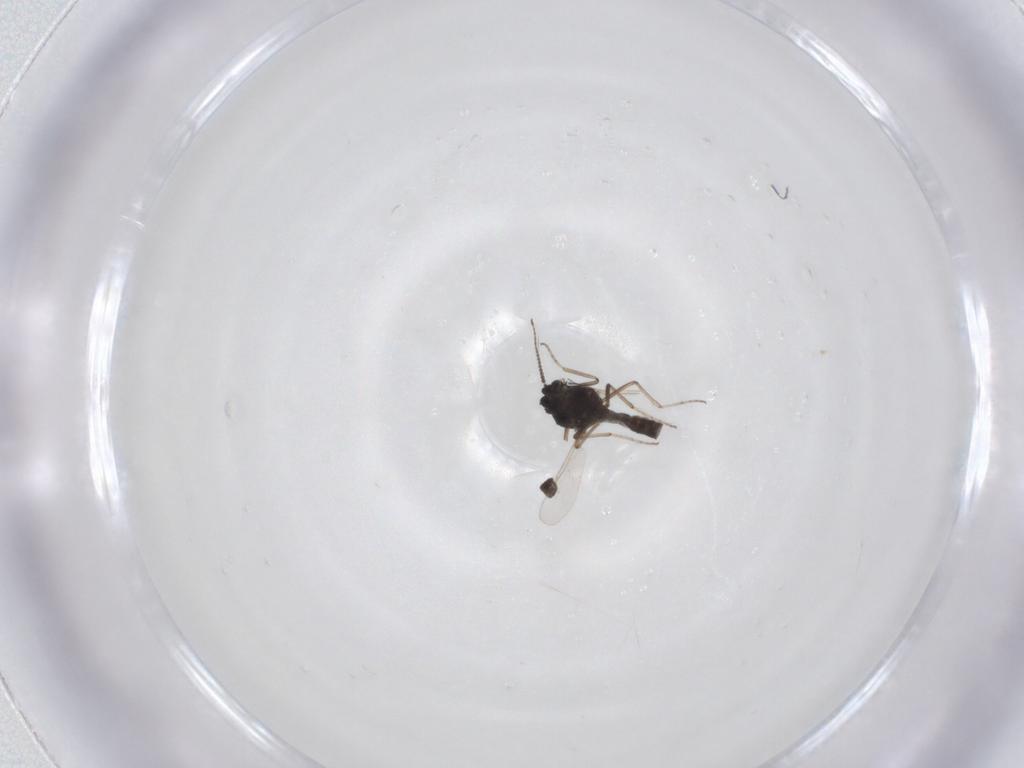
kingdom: Animalia
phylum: Arthropoda
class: Insecta
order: Diptera
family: Ceratopogonidae
